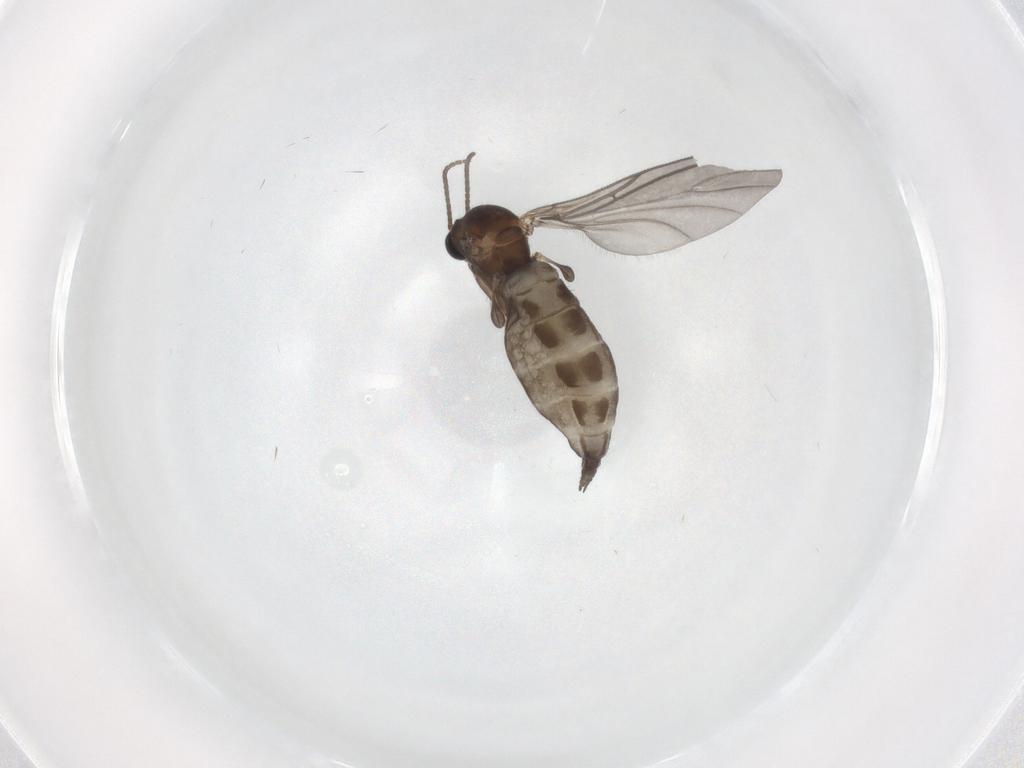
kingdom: Animalia
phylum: Arthropoda
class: Insecta
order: Diptera
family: Sciaridae
